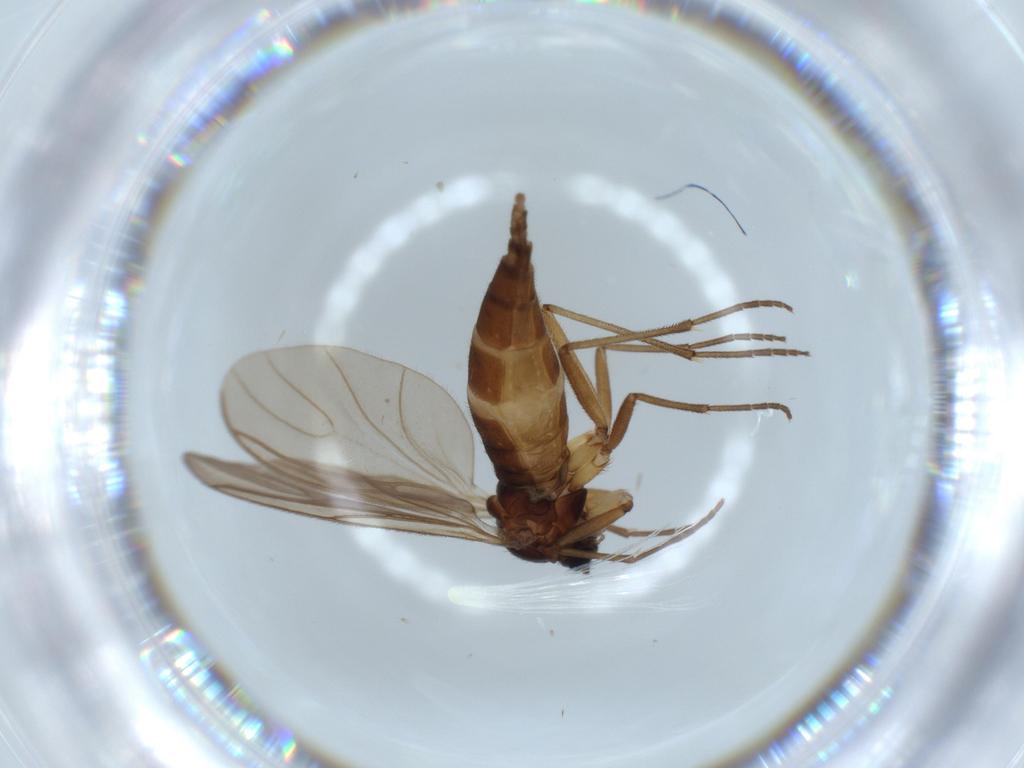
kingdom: Animalia
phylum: Arthropoda
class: Insecta
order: Diptera
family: Sciaridae
